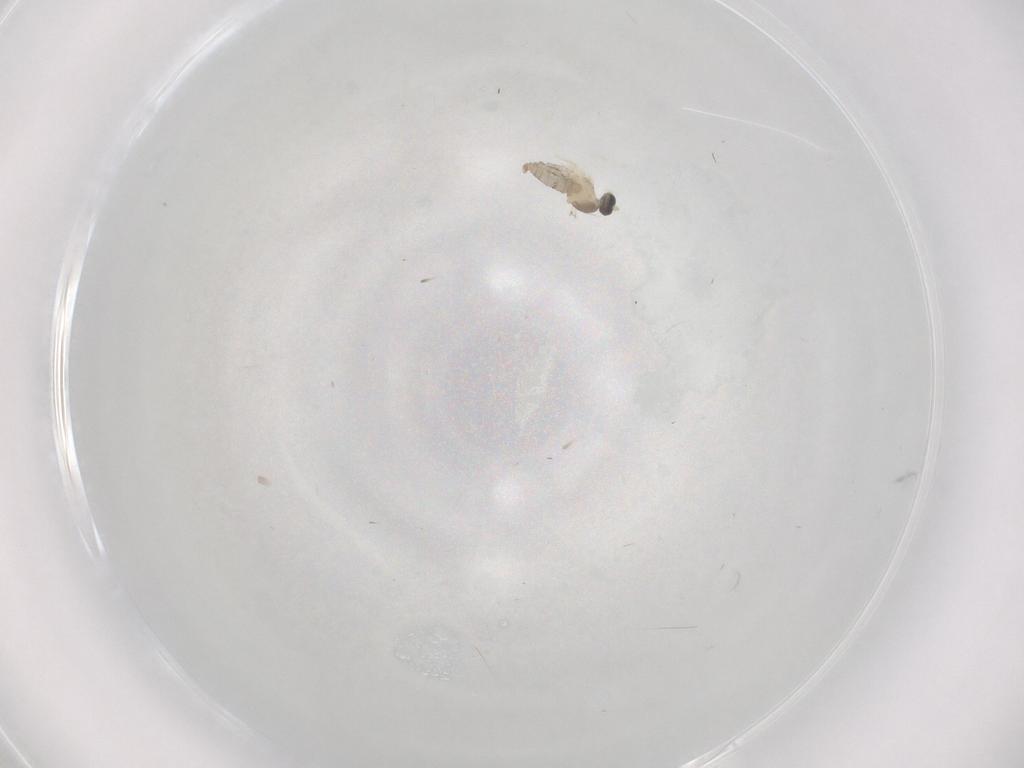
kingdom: Animalia
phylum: Arthropoda
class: Insecta
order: Diptera
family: Cecidomyiidae
